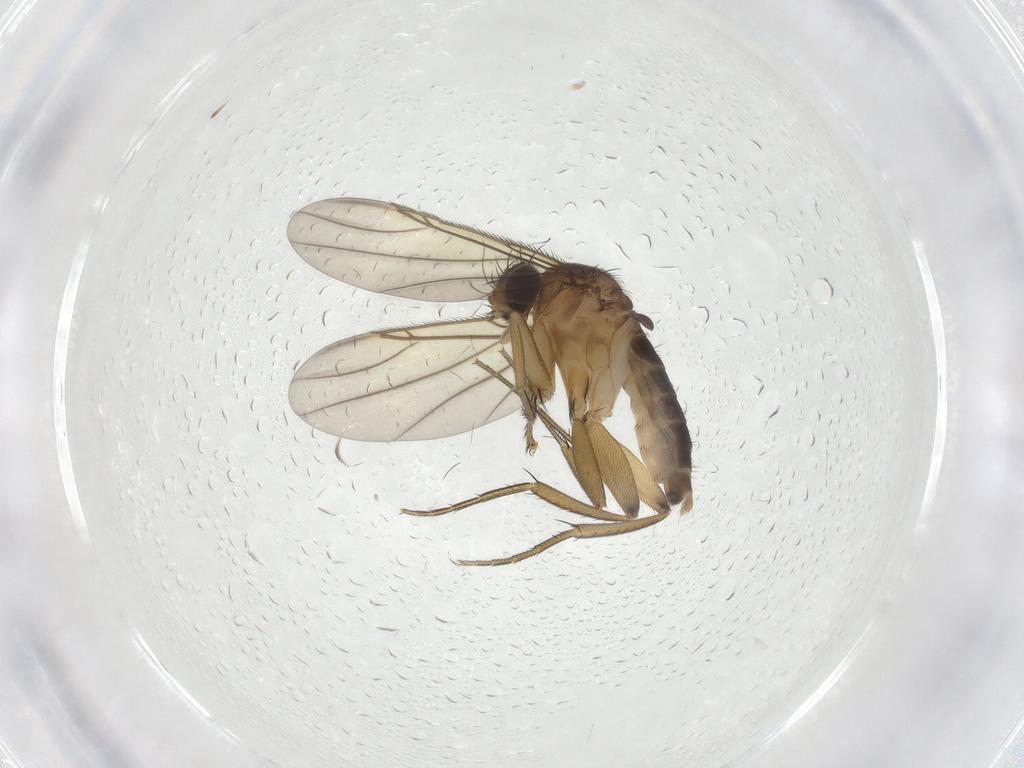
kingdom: Animalia
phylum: Arthropoda
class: Insecta
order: Diptera
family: Phoridae
